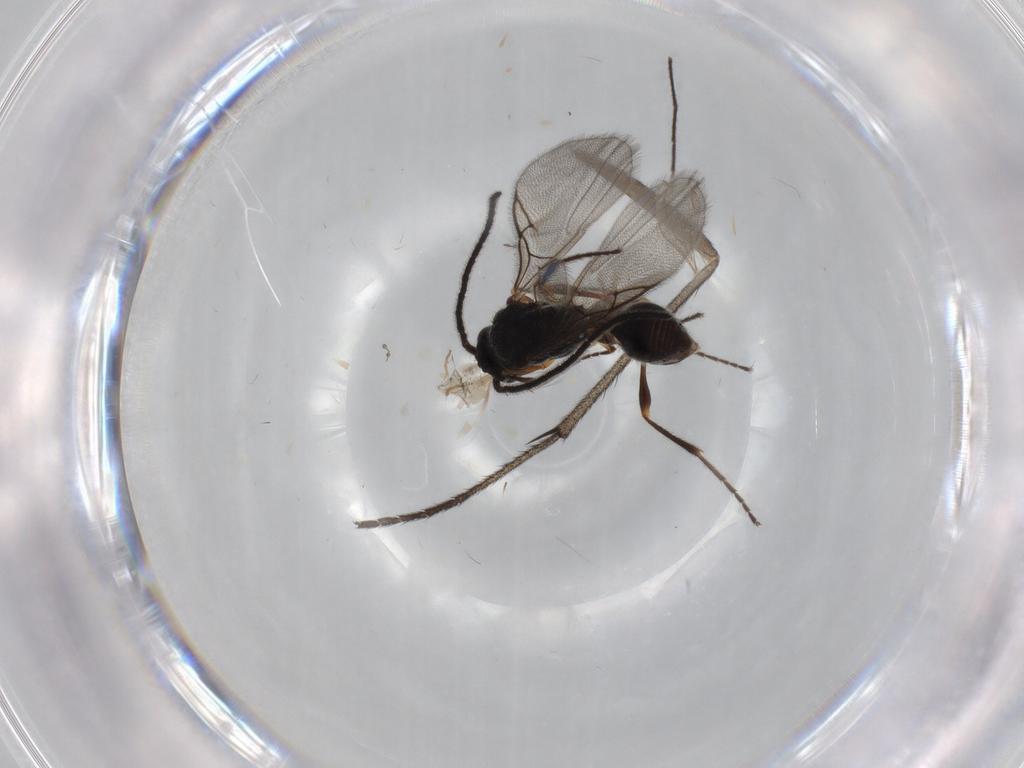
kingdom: Animalia
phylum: Arthropoda
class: Insecta
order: Hymenoptera
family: Diapriidae
